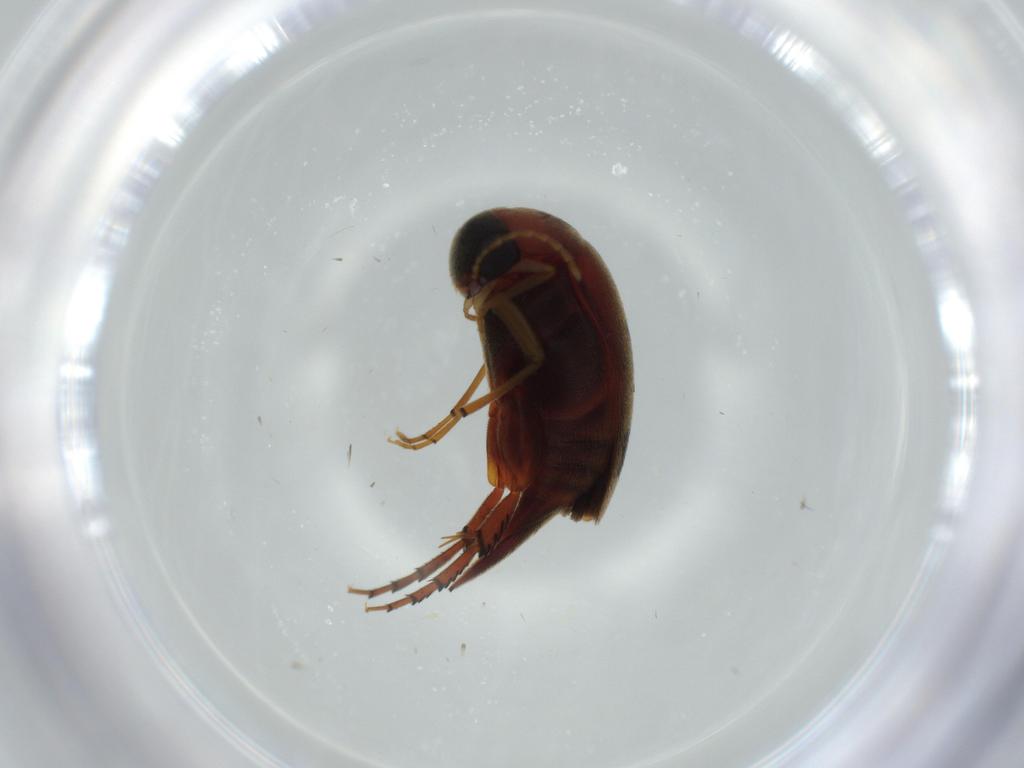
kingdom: Animalia
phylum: Arthropoda
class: Insecta
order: Coleoptera
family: Mordellidae
